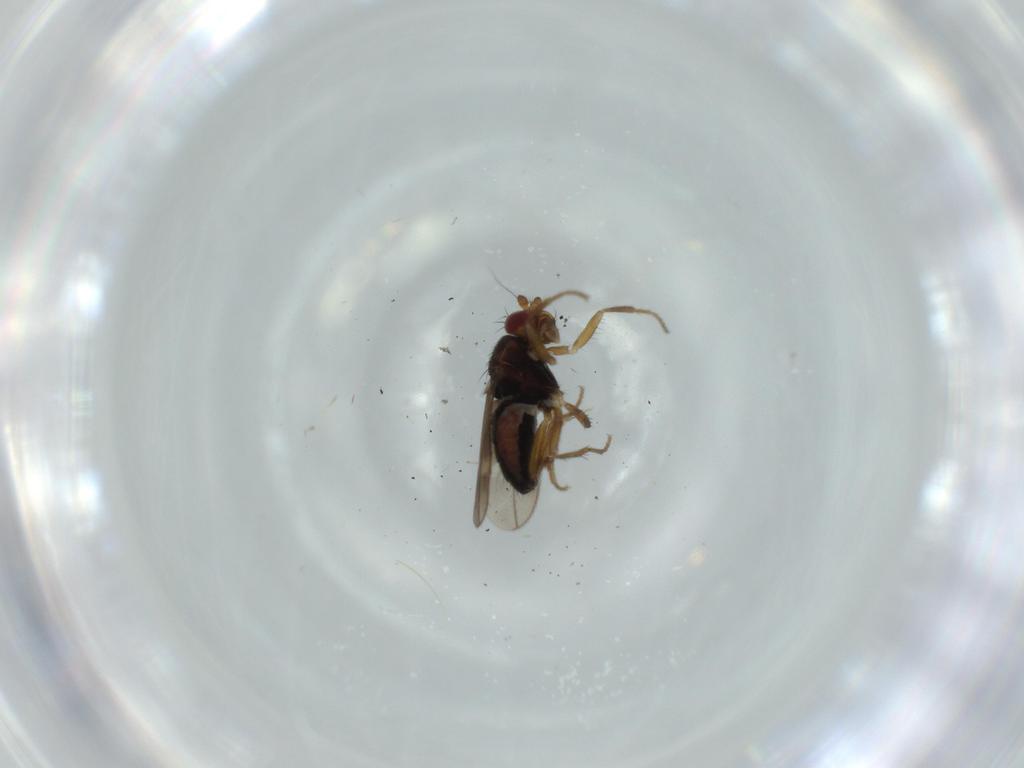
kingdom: Animalia
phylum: Arthropoda
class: Insecta
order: Diptera
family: Sphaeroceridae
